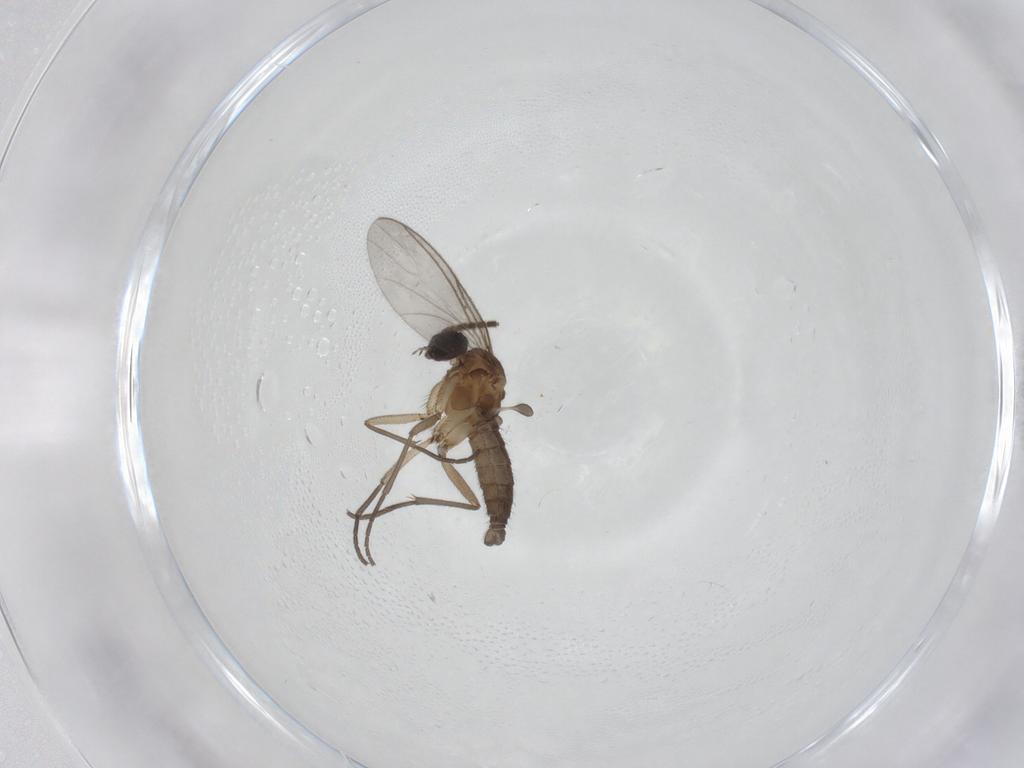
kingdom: Animalia
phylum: Arthropoda
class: Insecta
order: Diptera
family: Sciaridae
